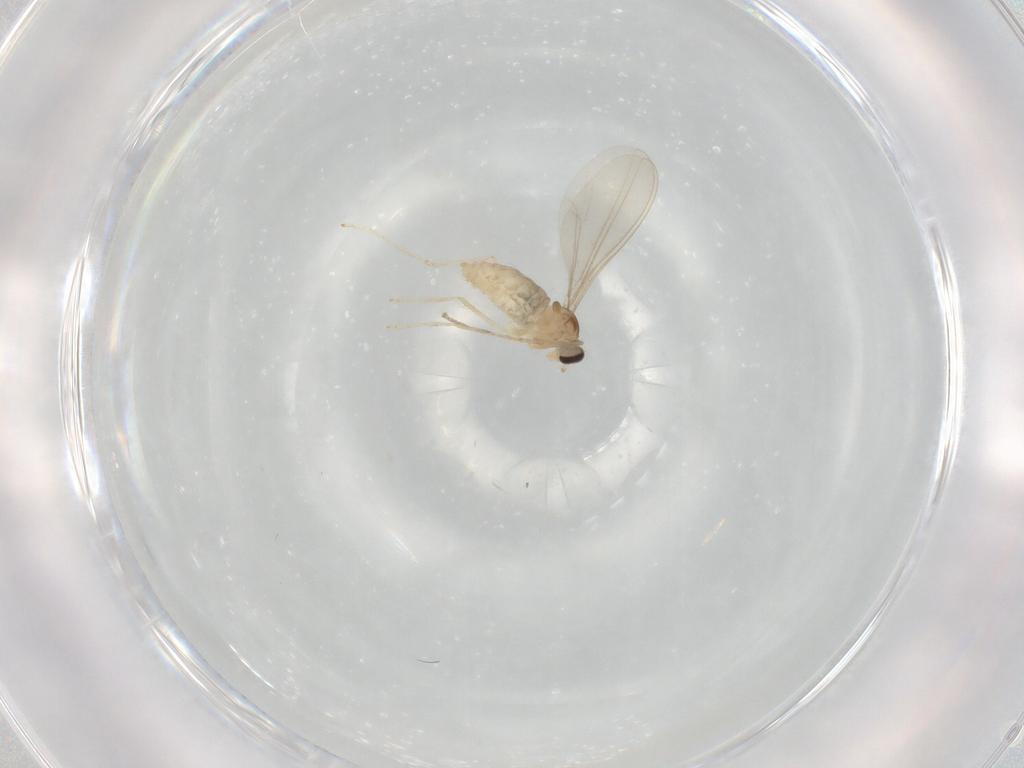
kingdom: Animalia
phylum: Arthropoda
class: Insecta
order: Diptera
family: Cecidomyiidae
